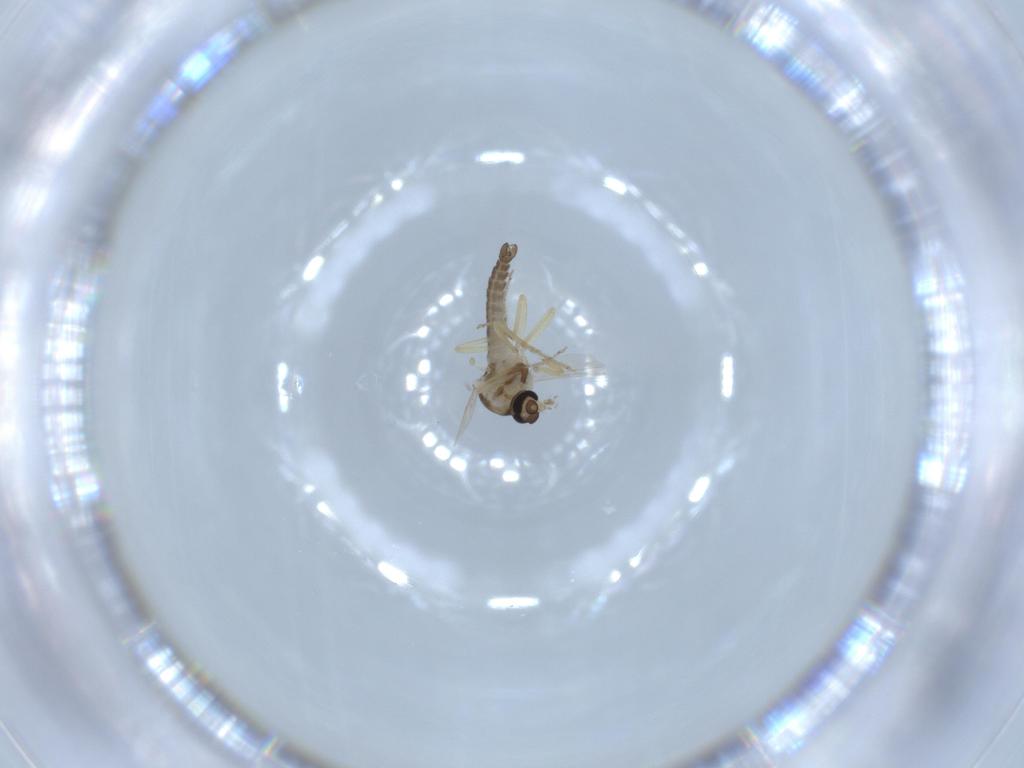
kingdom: Animalia
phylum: Arthropoda
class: Insecta
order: Diptera
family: Ceratopogonidae
